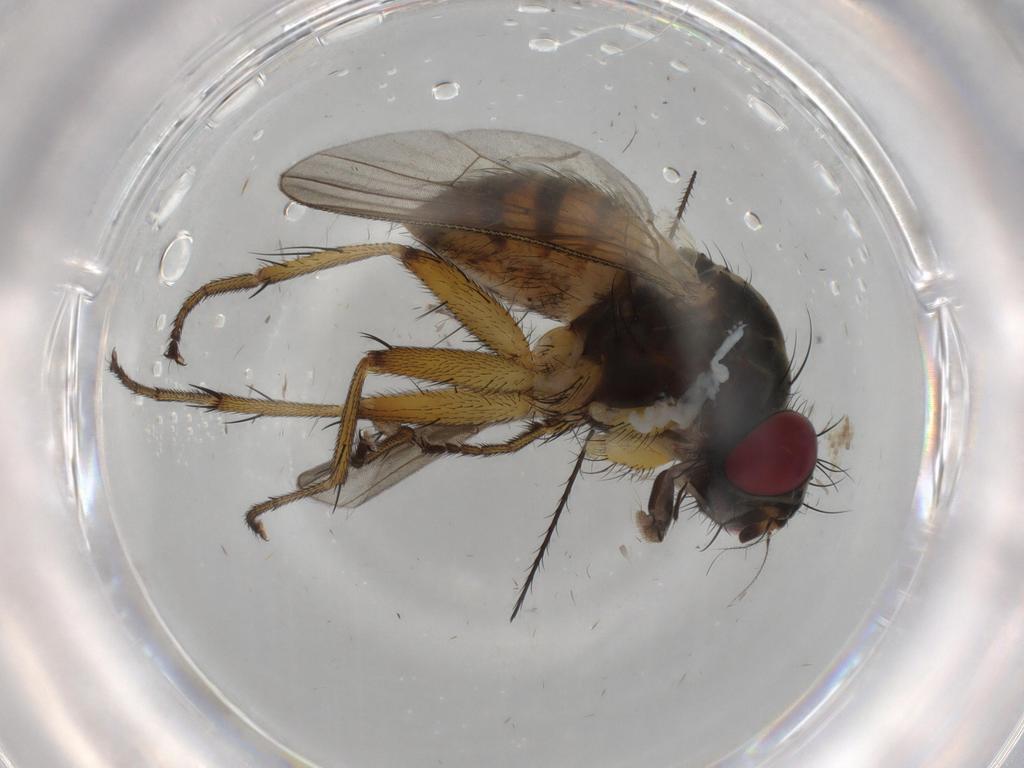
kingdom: Animalia
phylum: Arthropoda
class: Insecta
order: Diptera
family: Muscidae
